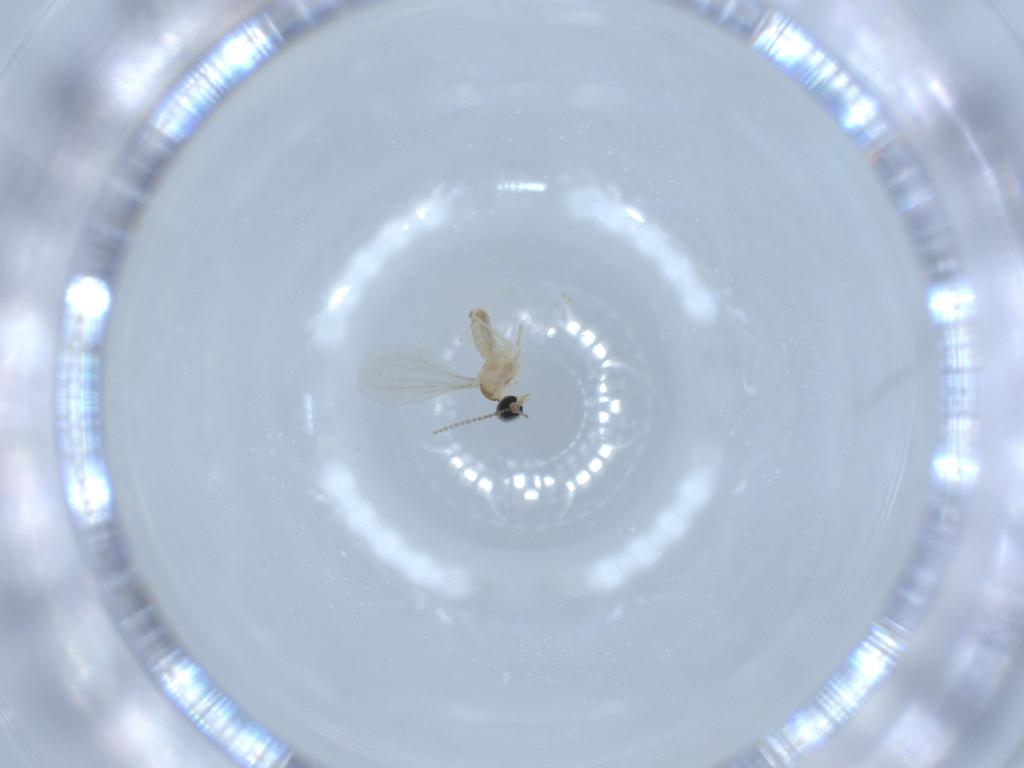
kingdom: Animalia
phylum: Arthropoda
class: Insecta
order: Diptera
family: Cecidomyiidae
